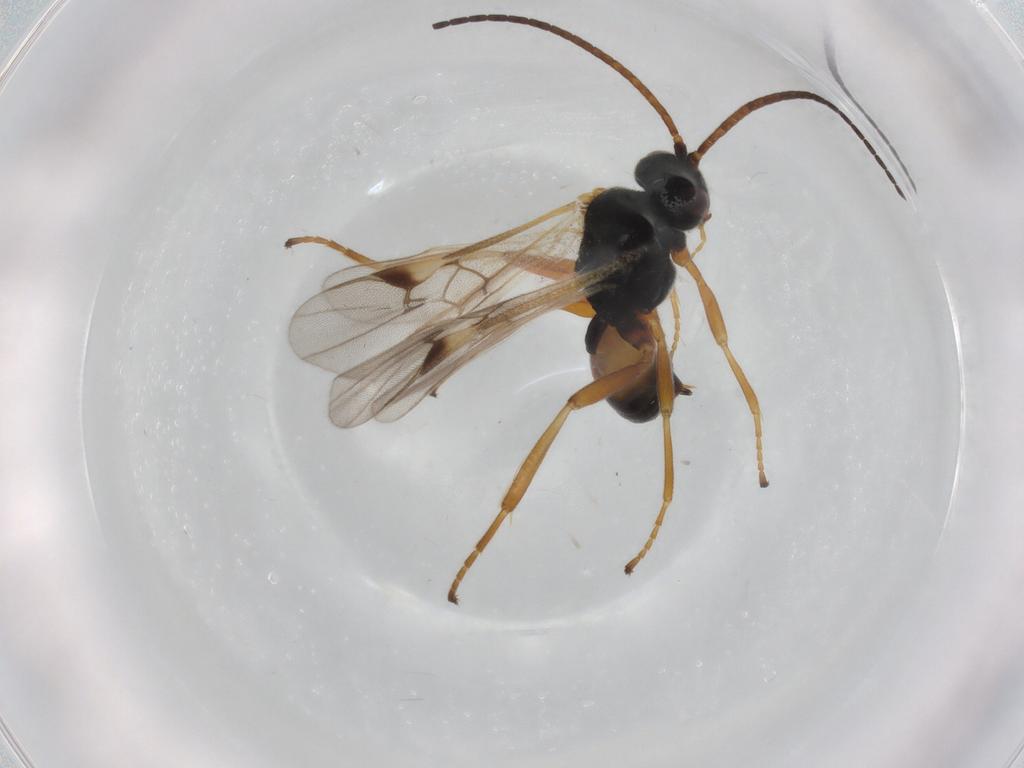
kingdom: Animalia
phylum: Arthropoda
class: Insecta
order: Hymenoptera
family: Braconidae
